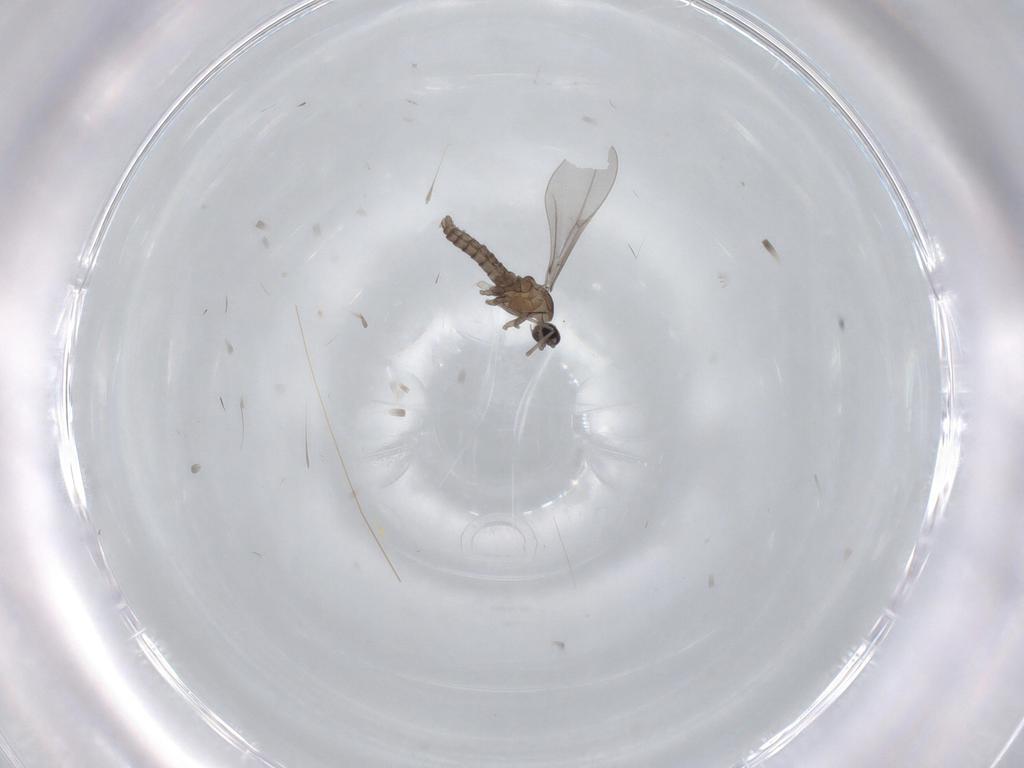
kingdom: Animalia
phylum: Arthropoda
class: Insecta
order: Diptera
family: Cecidomyiidae
